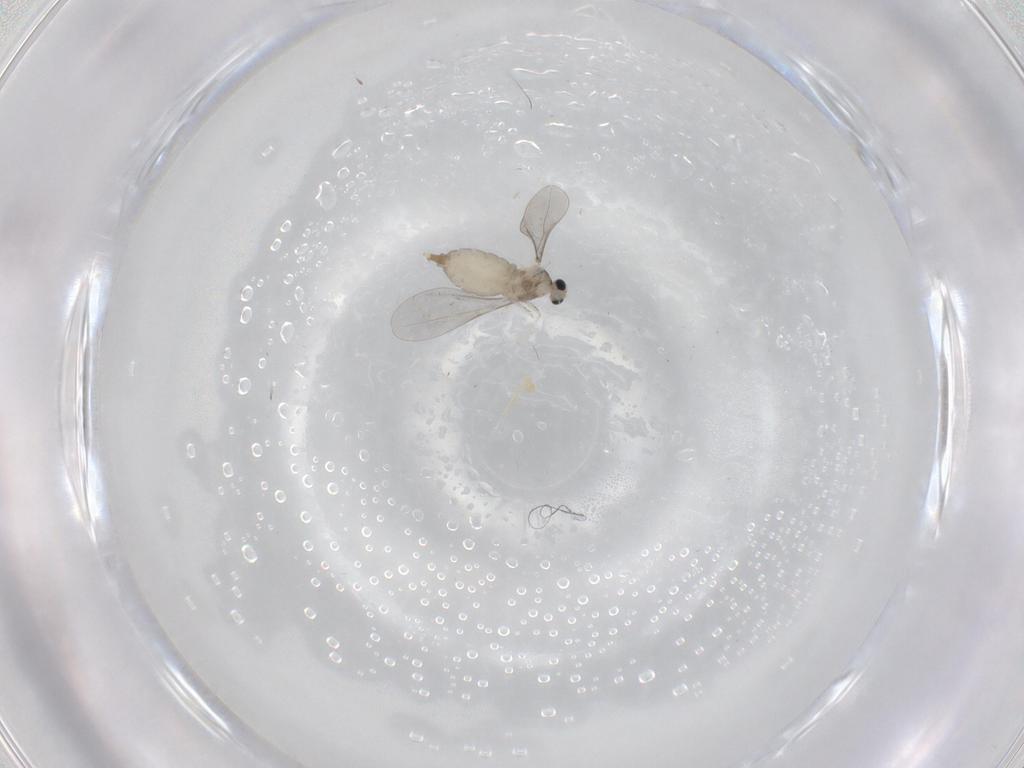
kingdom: Animalia
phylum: Arthropoda
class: Insecta
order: Diptera
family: Cecidomyiidae
